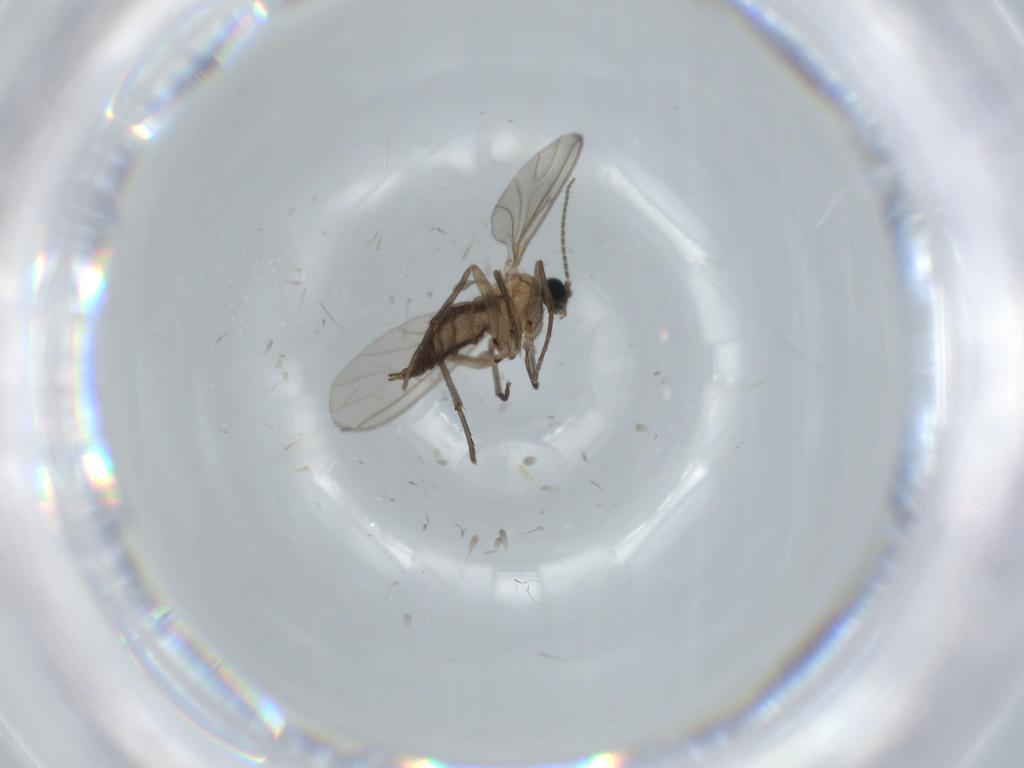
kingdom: Animalia
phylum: Arthropoda
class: Insecta
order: Diptera
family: Sciaridae
